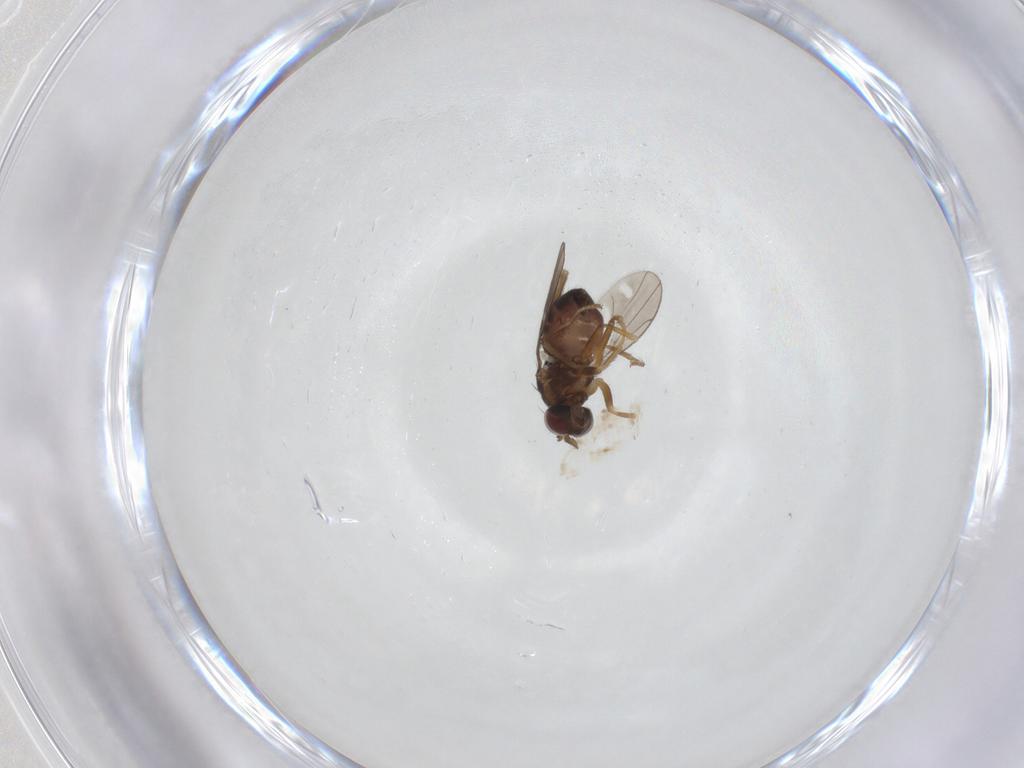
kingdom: Animalia
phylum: Arthropoda
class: Insecta
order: Diptera
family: Ephydridae
